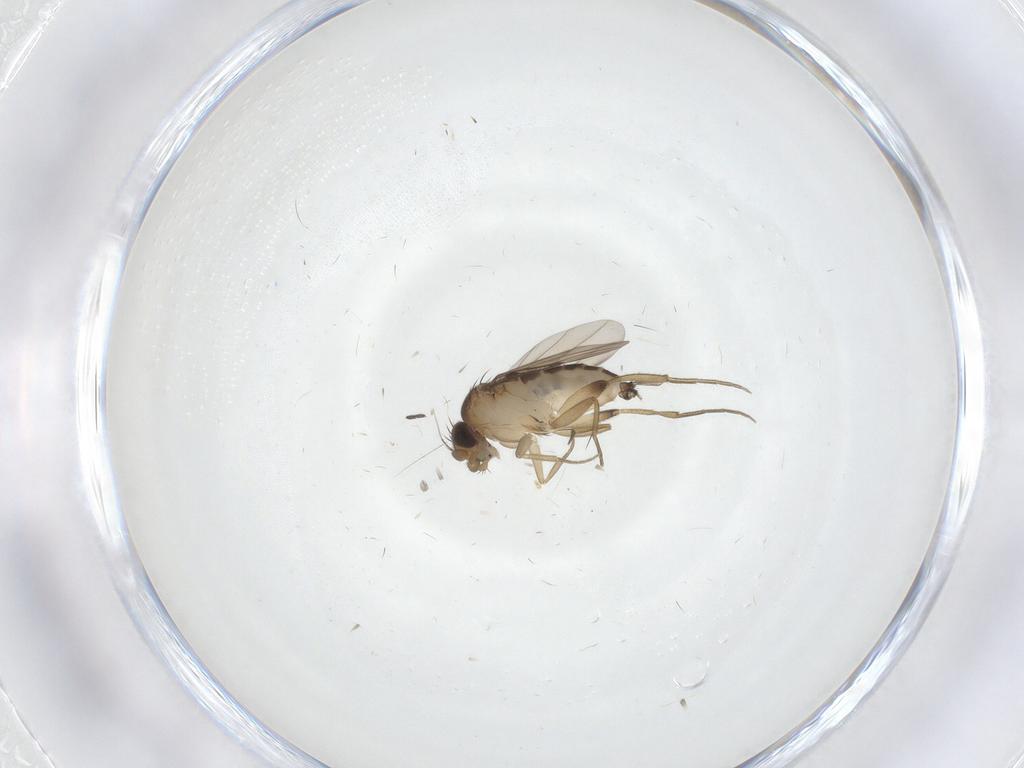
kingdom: Animalia
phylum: Arthropoda
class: Insecta
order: Diptera
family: Phoridae
